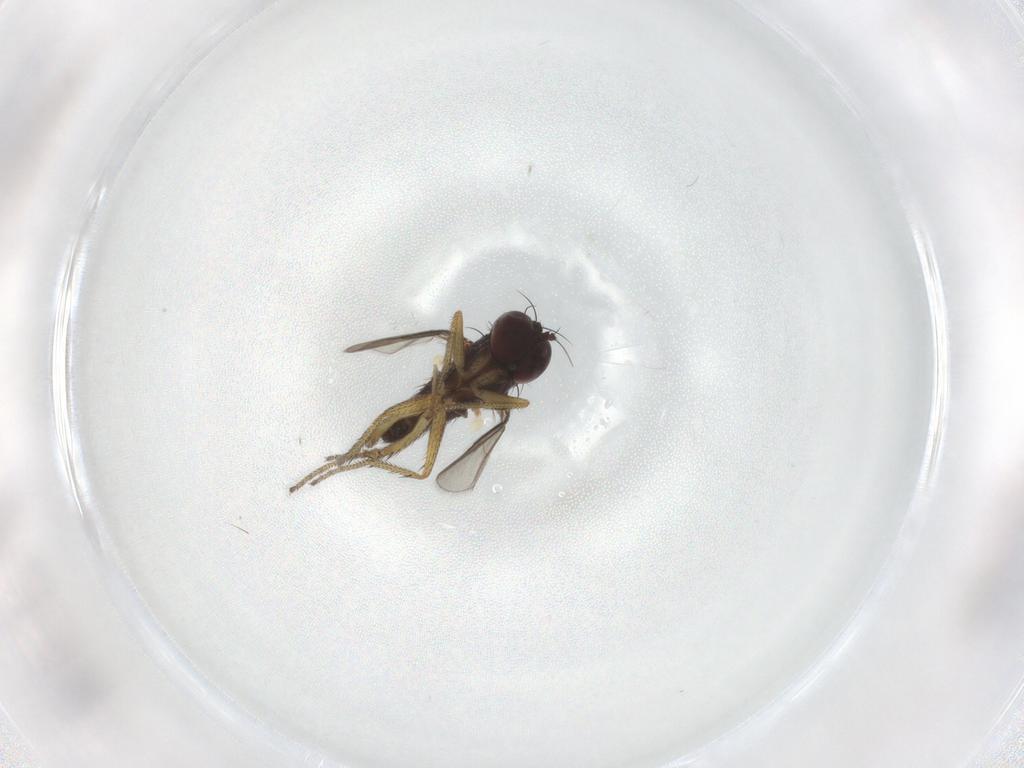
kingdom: Animalia
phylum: Arthropoda
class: Insecta
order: Diptera
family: Ceratopogonidae
